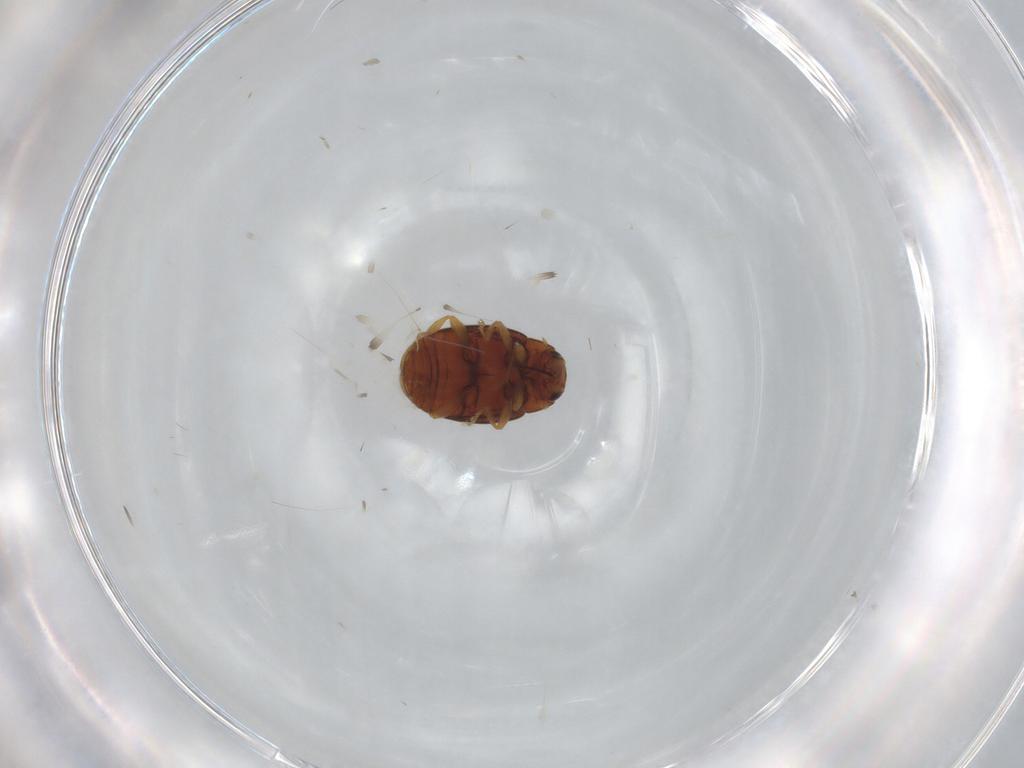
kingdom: Animalia
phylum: Arthropoda
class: Insecta
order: Coleoptera
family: Coccinellidae
